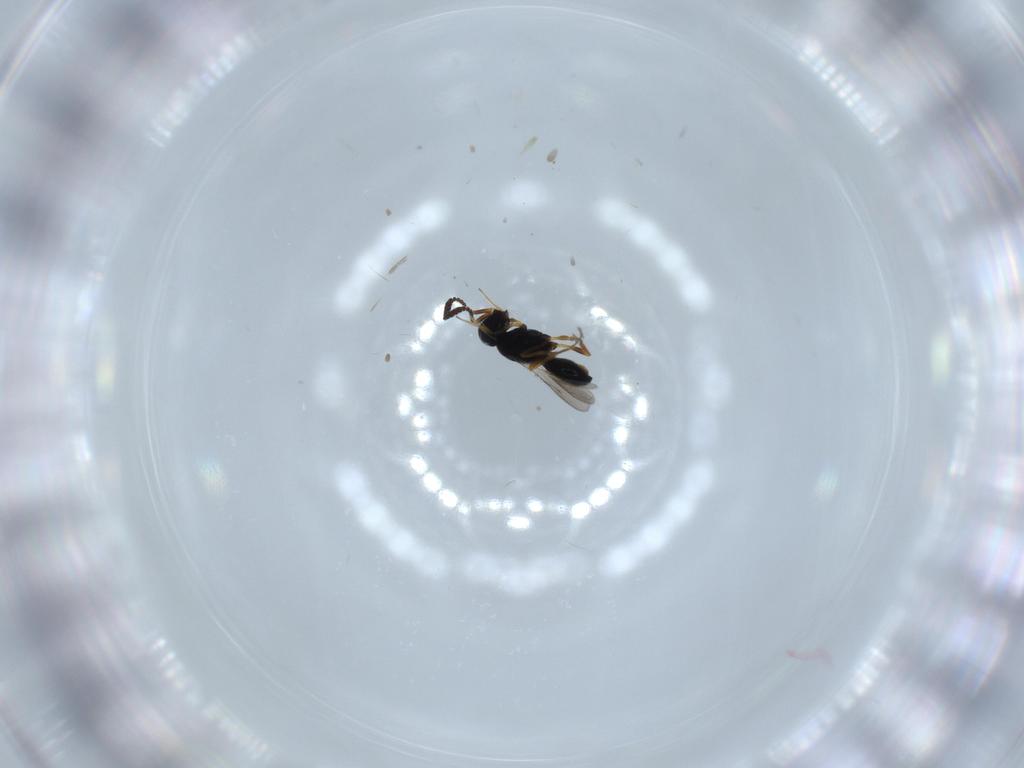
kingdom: Animalia
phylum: Arthropoda
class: Insecta
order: Hymenoptera
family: Scelionidae
